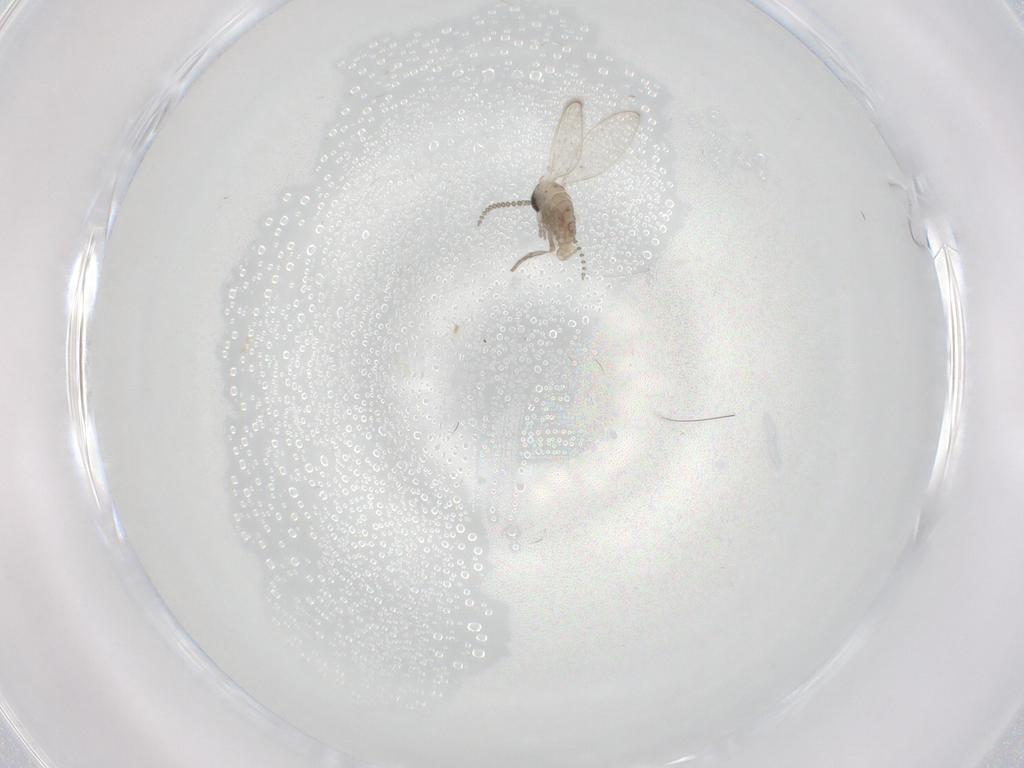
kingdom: Animalia
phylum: Arthropoda
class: Insecta
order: Diptera
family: Psychodidae
